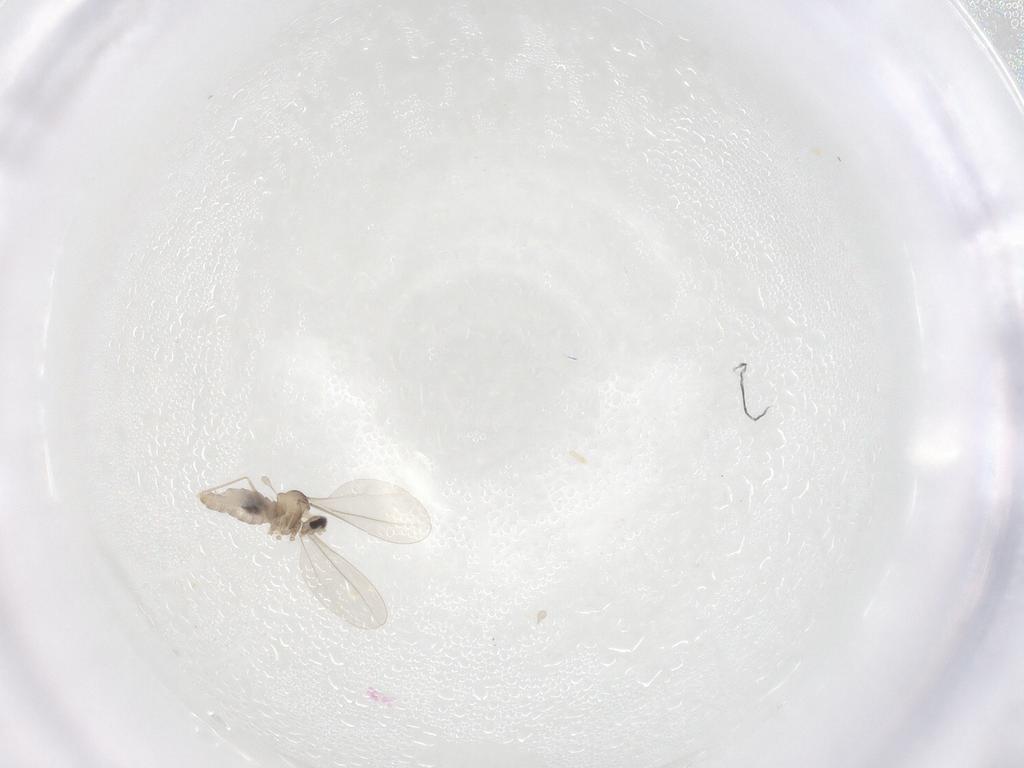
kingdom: Animalia
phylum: Arthropoda
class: Insecta
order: Diptera
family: Cecidomyiidae
